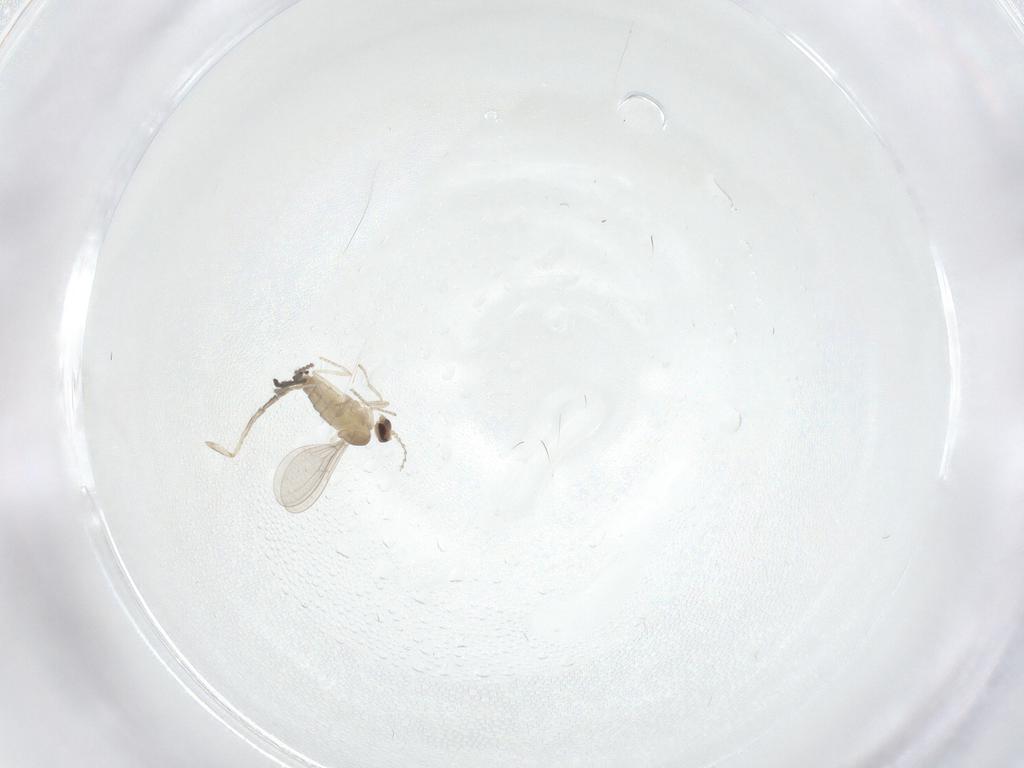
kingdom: Animalia
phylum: Arthropoda
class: Insecta
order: Diptera
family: Cecidomyiidae
